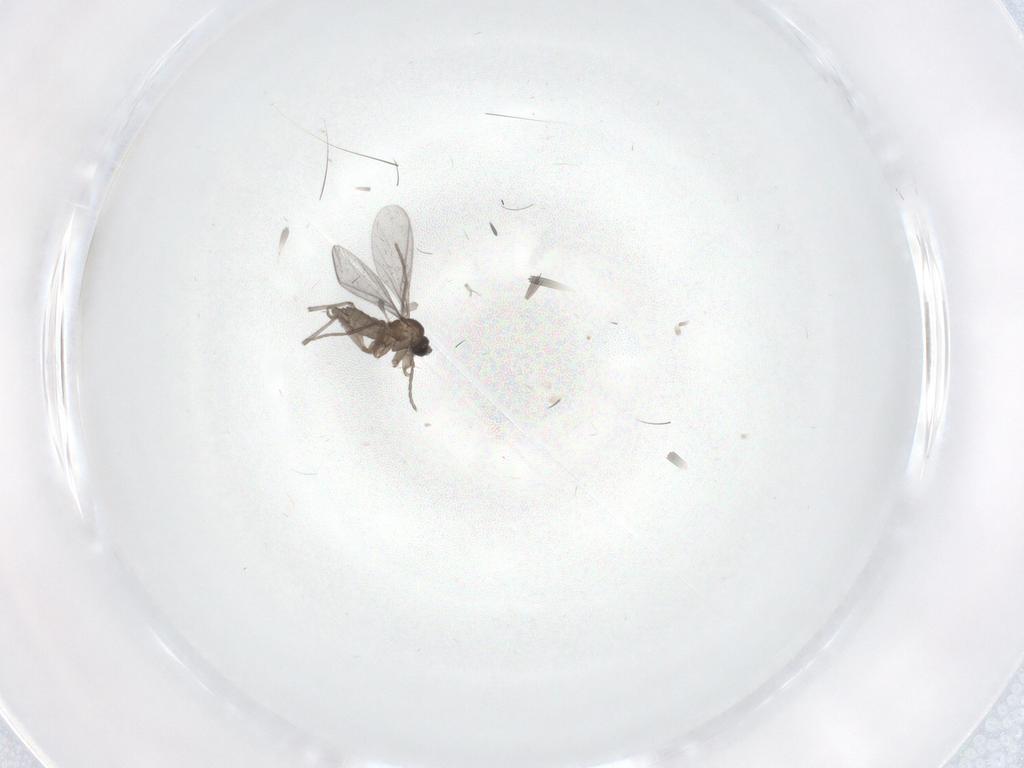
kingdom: Animalia
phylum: Arthropoda
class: Insecta
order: Diptera
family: Sciaridae
